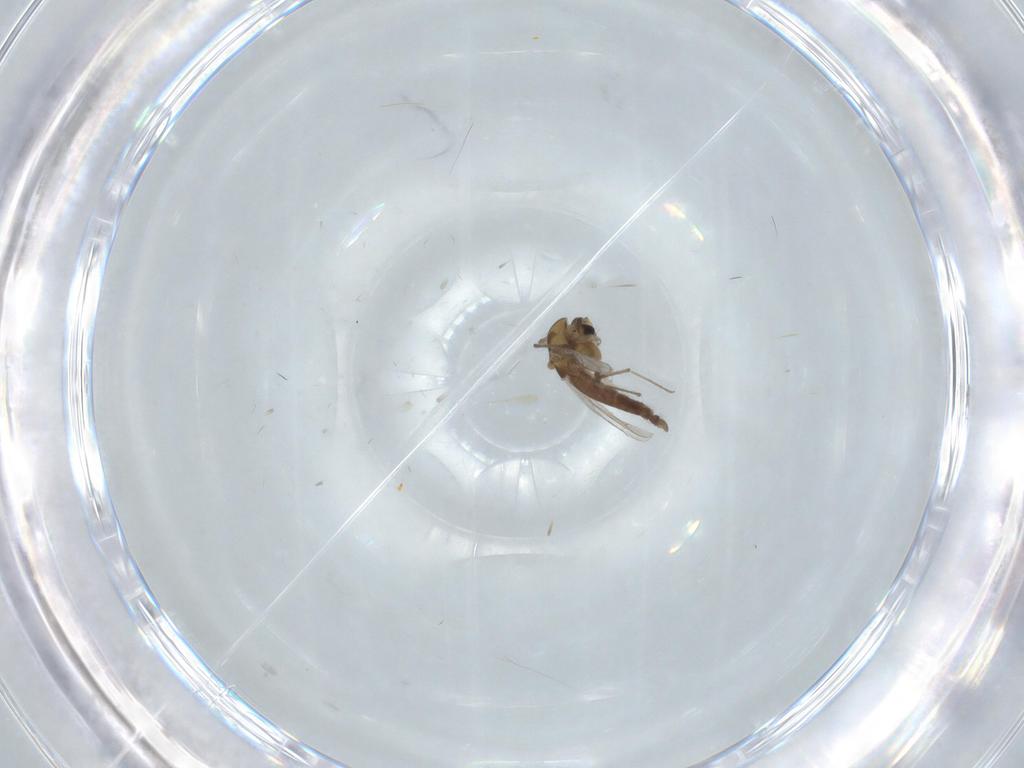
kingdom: Animalia
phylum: Arthropoda
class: Insecta
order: Diptera
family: Chironomidae
